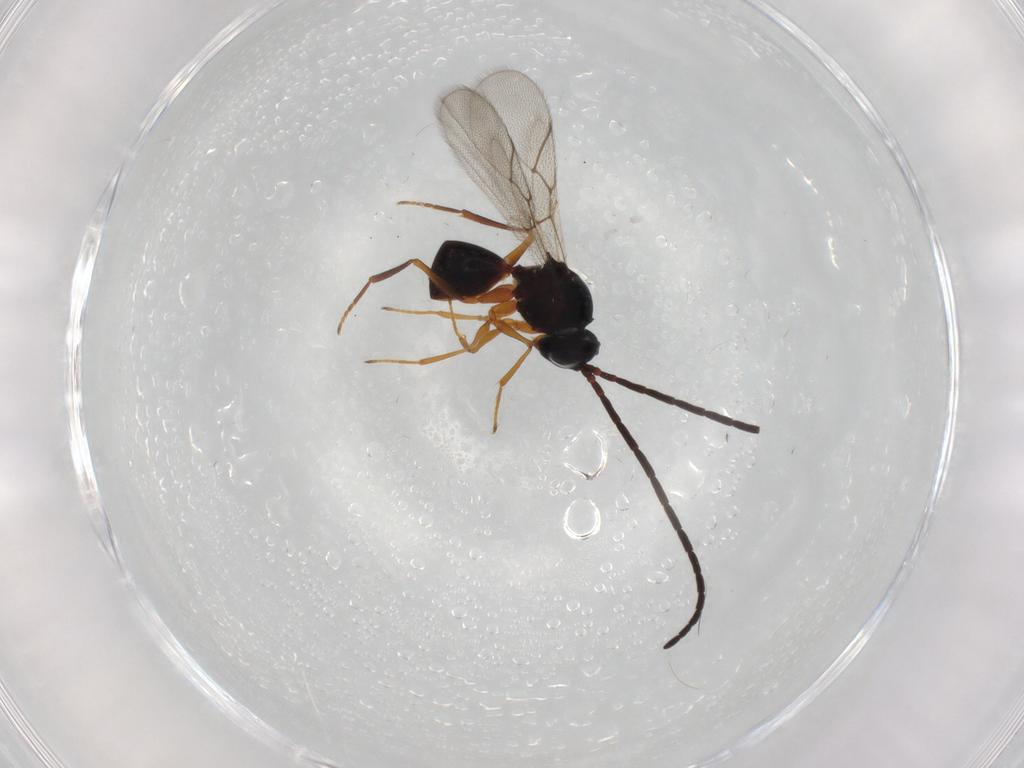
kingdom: Animalia
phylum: Arthropoda
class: Insecta
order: Hymenoptera
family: Figitidae
